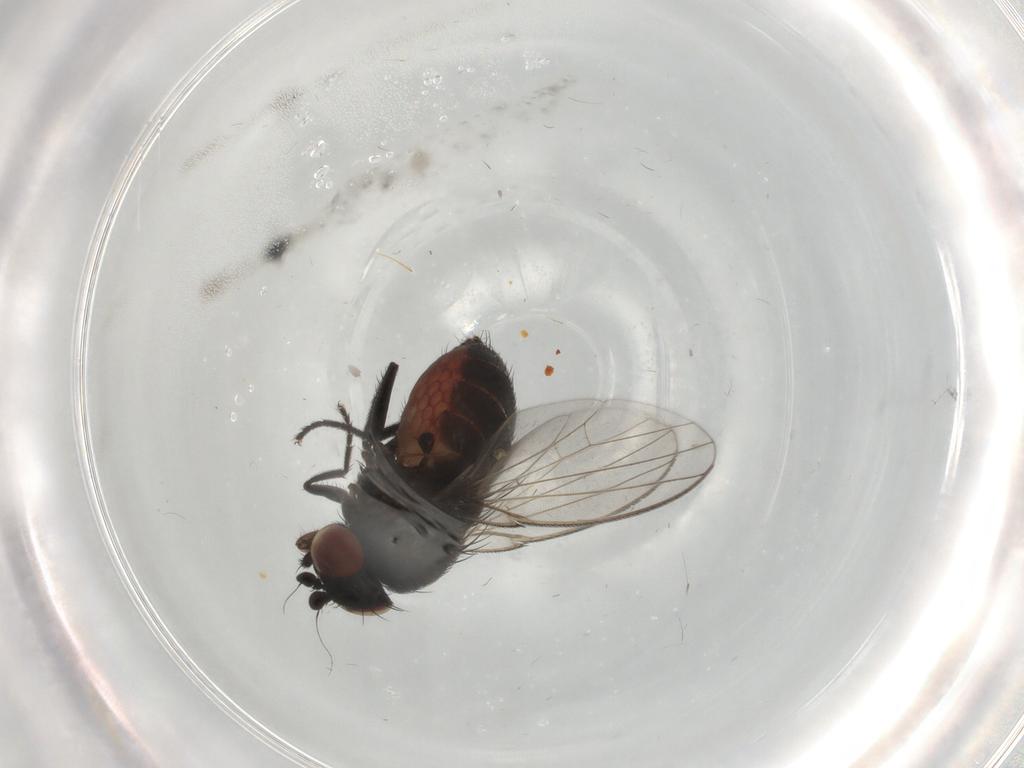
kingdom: Animalia
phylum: Arthropoda
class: Insecta
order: Diptera
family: Milichiidae
